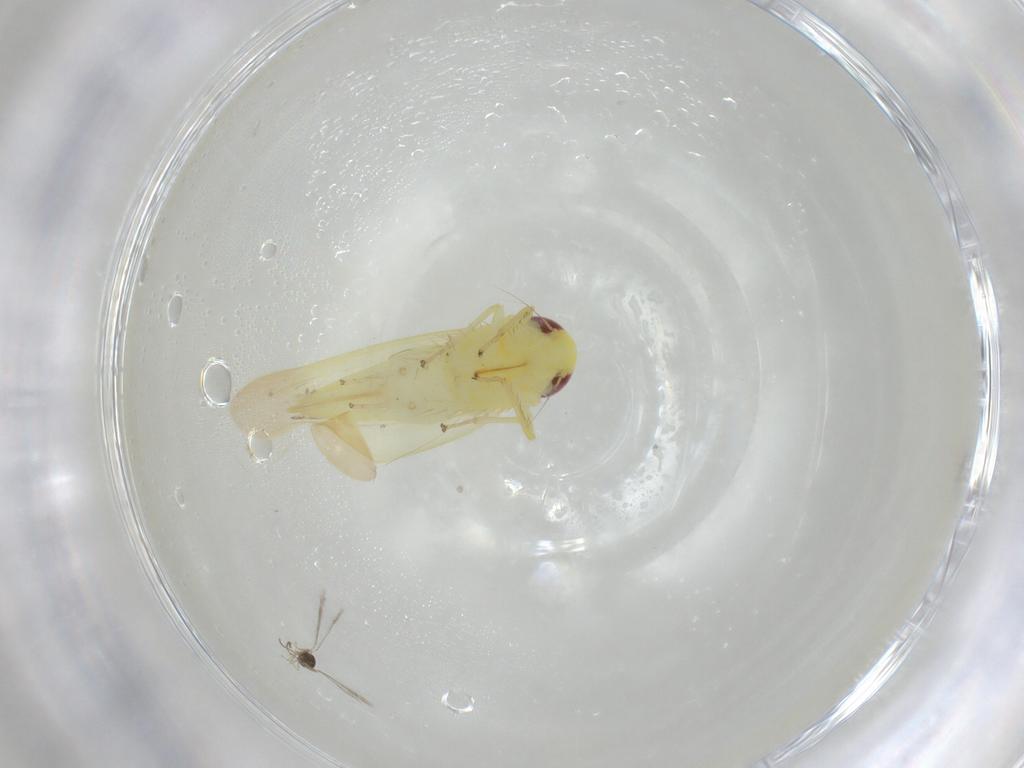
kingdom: Animalia
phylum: Arthropoda
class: Insecta
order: Hemiptera
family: Cicadellidae
